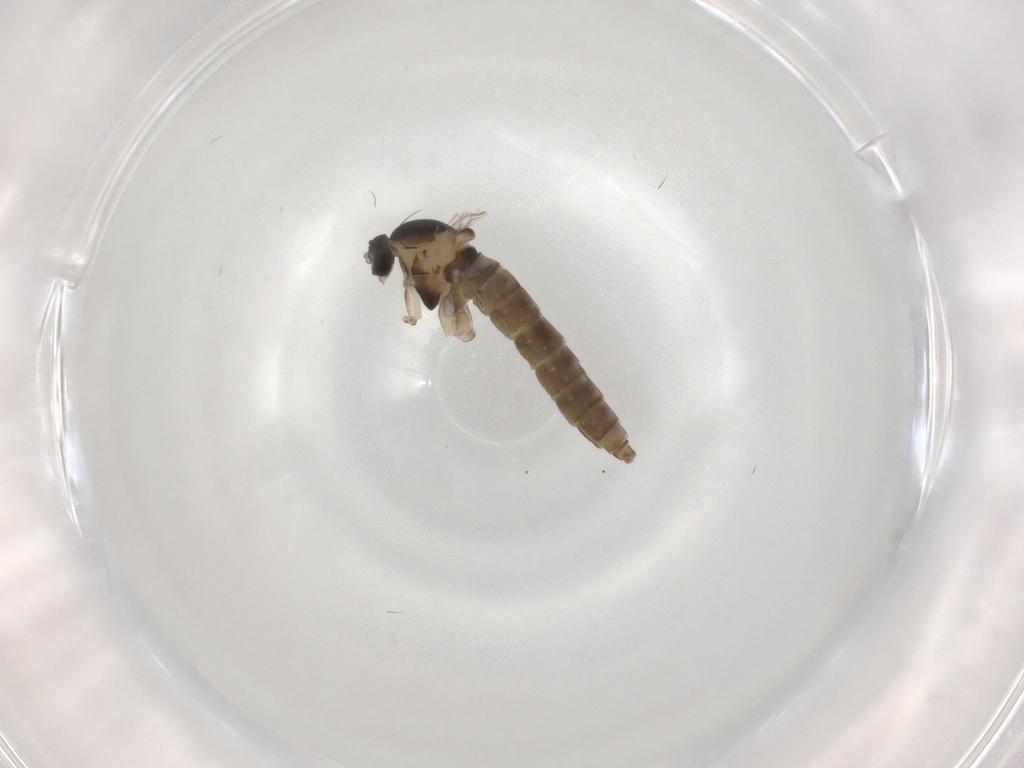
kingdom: Animalia
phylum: Arthropoda
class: Insecta
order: Diptera
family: Cecidomyiidae
